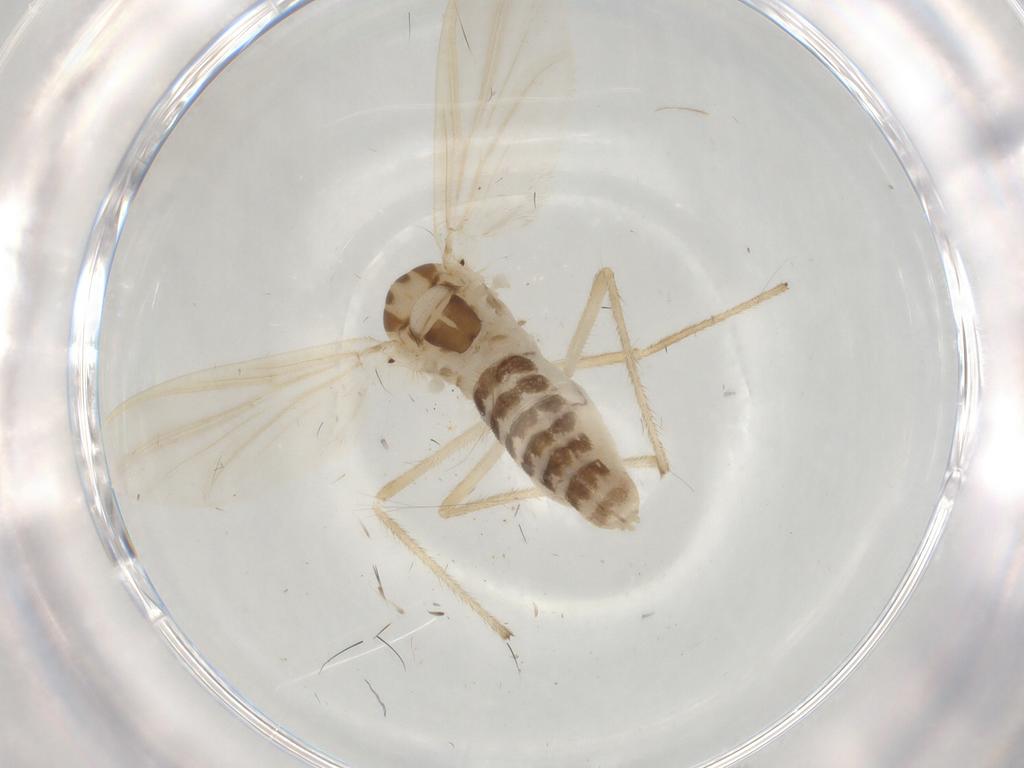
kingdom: Animalia
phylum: Arthropoda
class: Insecta
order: Diptera
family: Chironomidae
